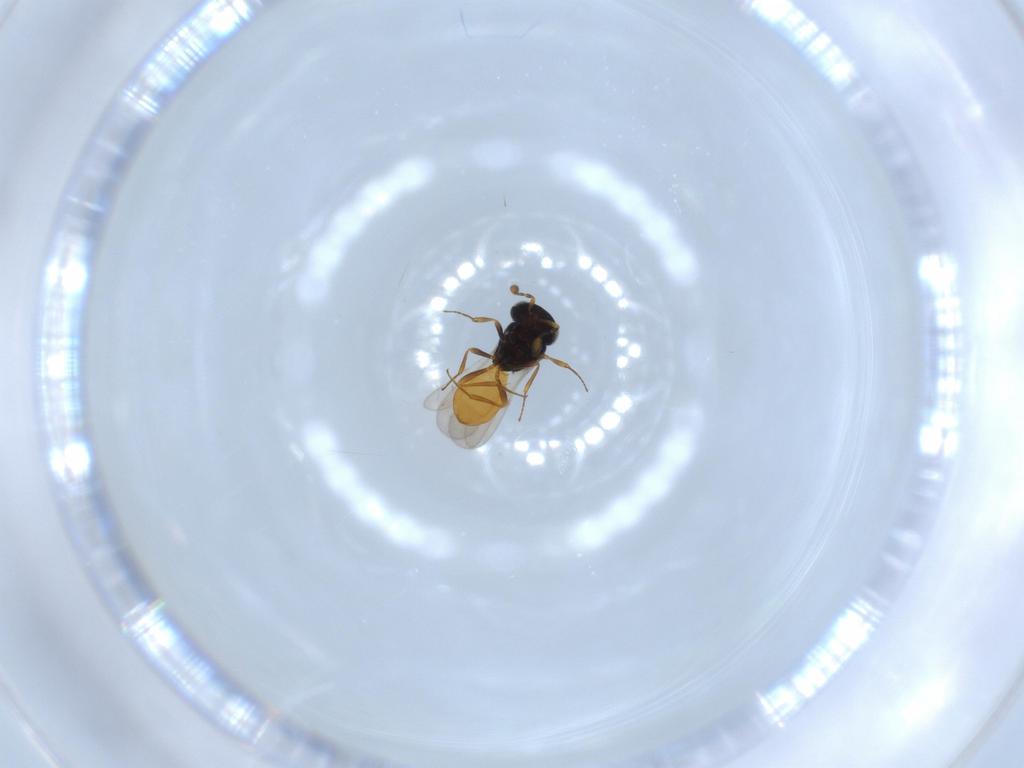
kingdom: Animalia
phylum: Arthropoda
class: Insecta
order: Hymenoptera
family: Scelionidae
